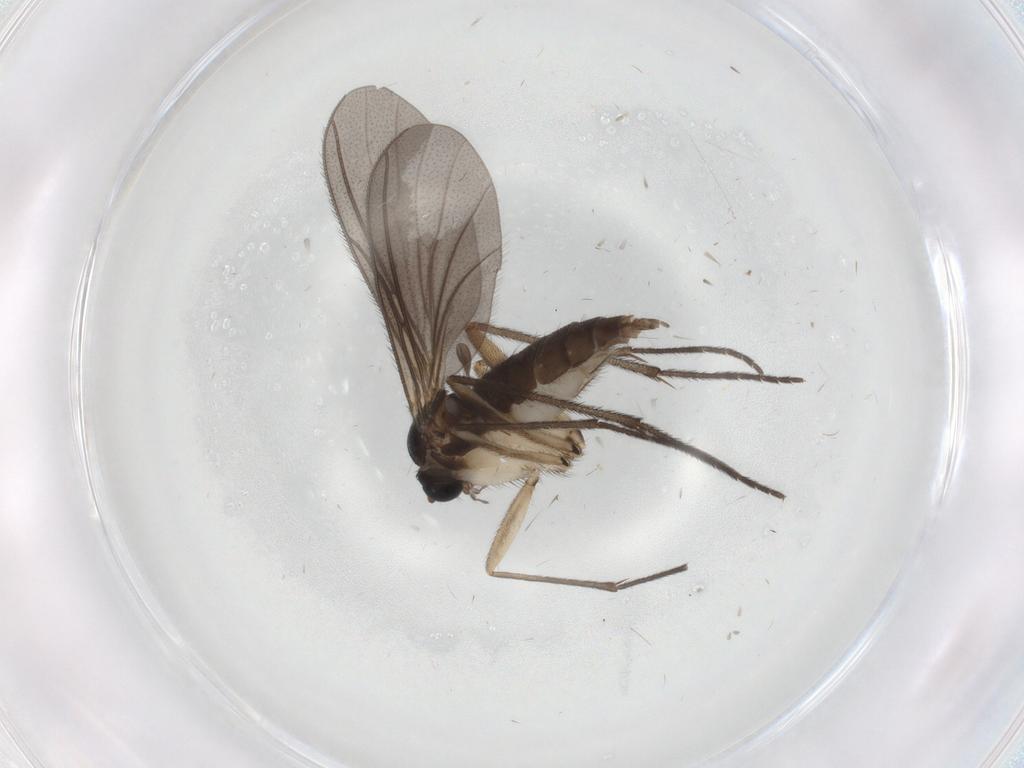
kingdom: Animalia
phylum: Arthropoda
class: Insecta
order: Diptera
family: Sciaridae
